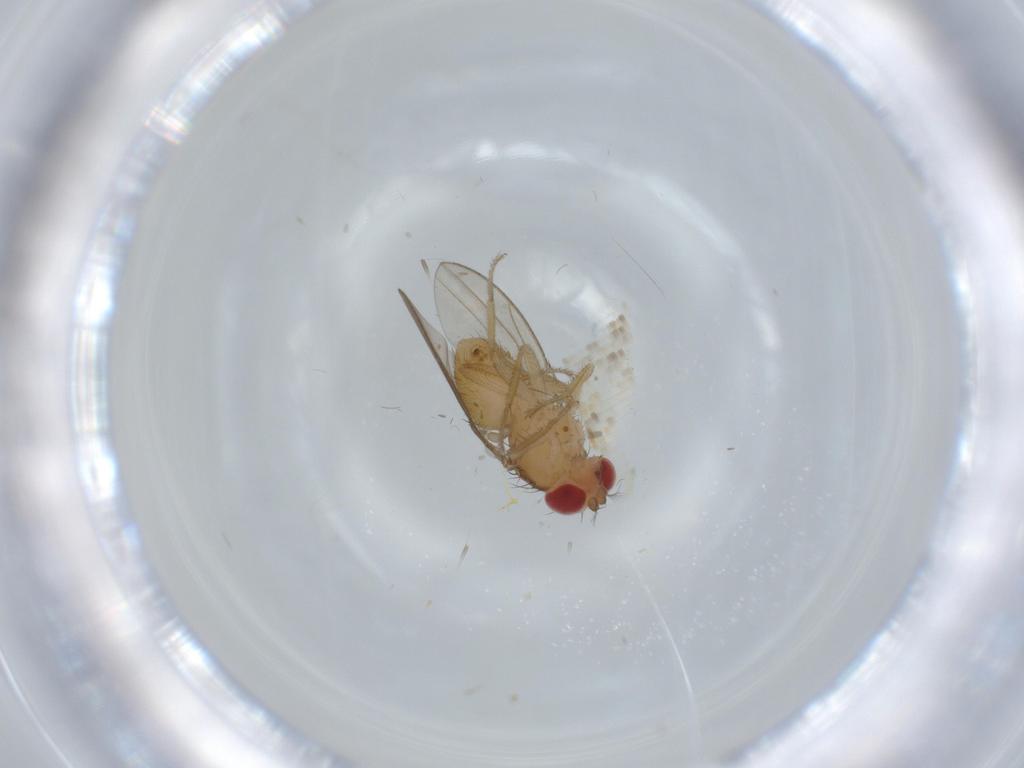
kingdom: Animalia
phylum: Arthropoda
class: Insecta
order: Diptera
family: Drosophilidae
